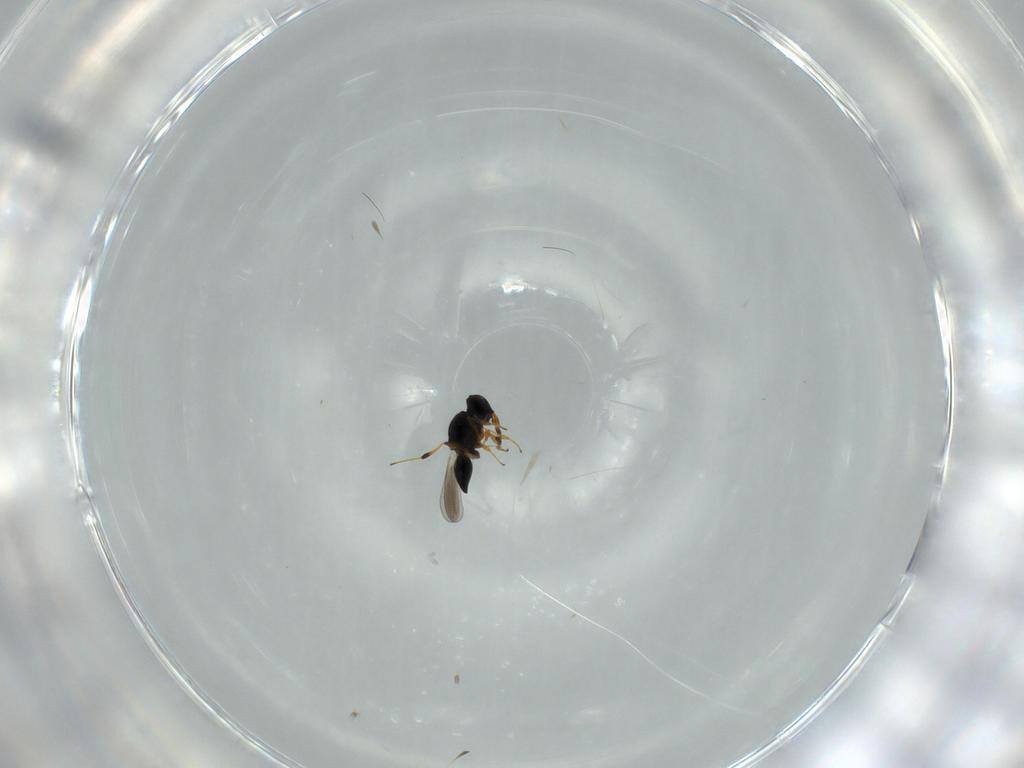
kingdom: Animalia
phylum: Arthropoda
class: Insecta
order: Hymenoptera
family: Platygastridae
